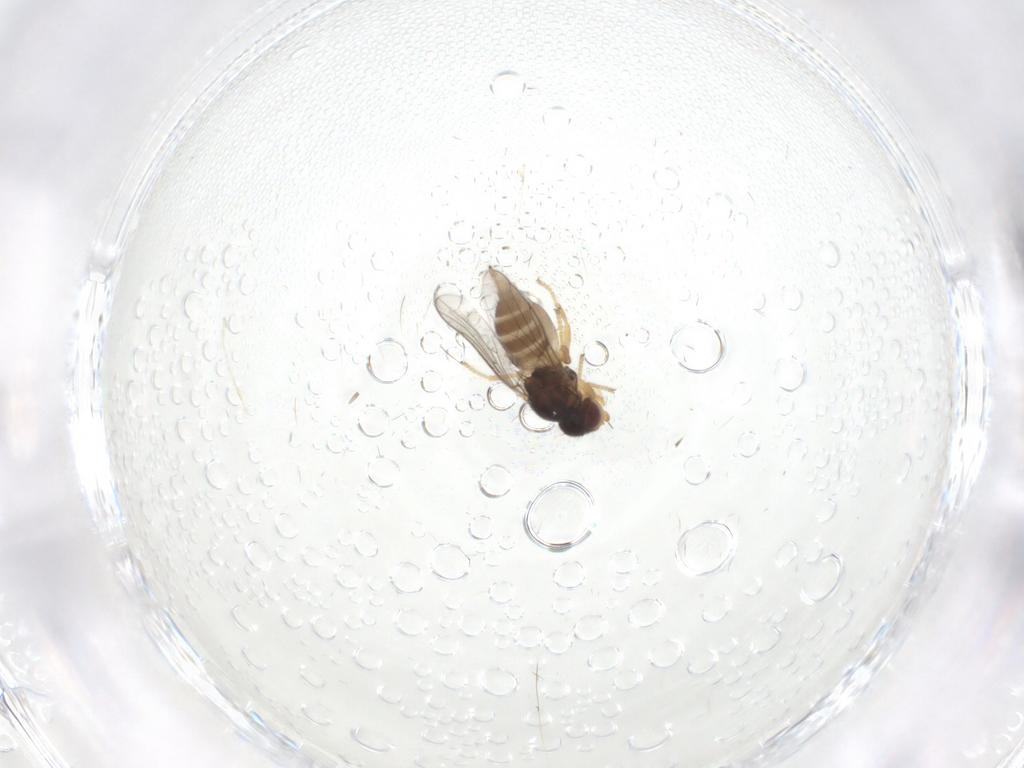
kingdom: Animalia
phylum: Arthropoda
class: Insecta
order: Diptera
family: Chloropidae
